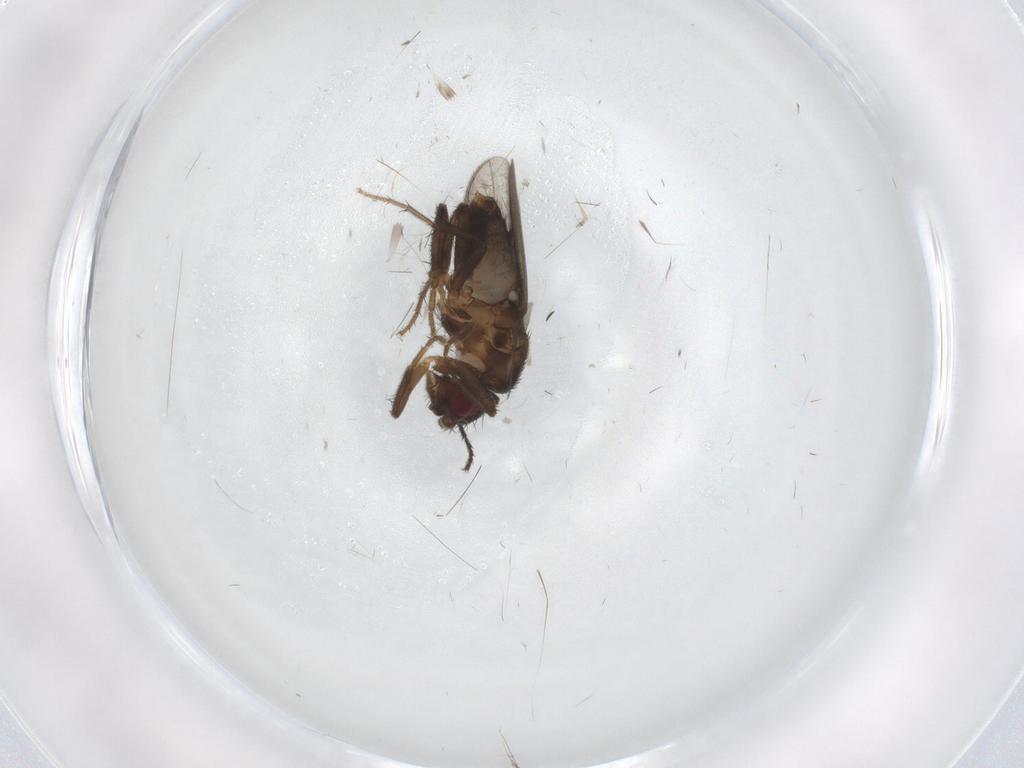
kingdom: Animalia
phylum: Arthropoda
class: Insecta
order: Diptera
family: Milichiidae
